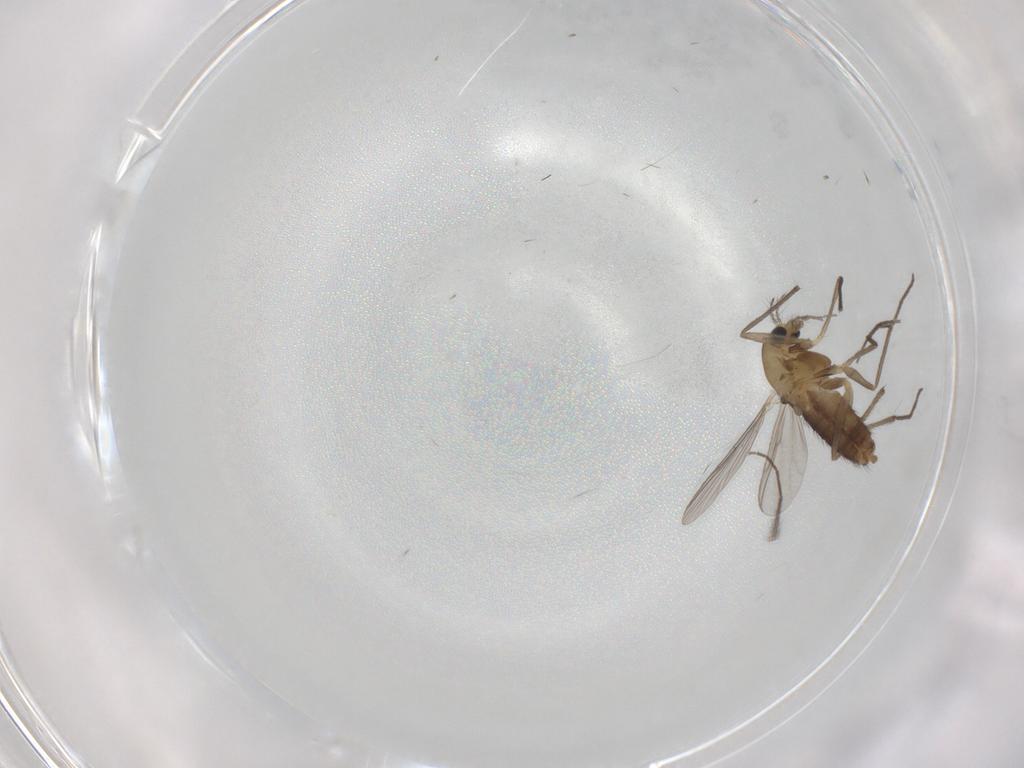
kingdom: Animalia
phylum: Arthropoda
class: Insecta
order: Diptera
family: Chironomidae
